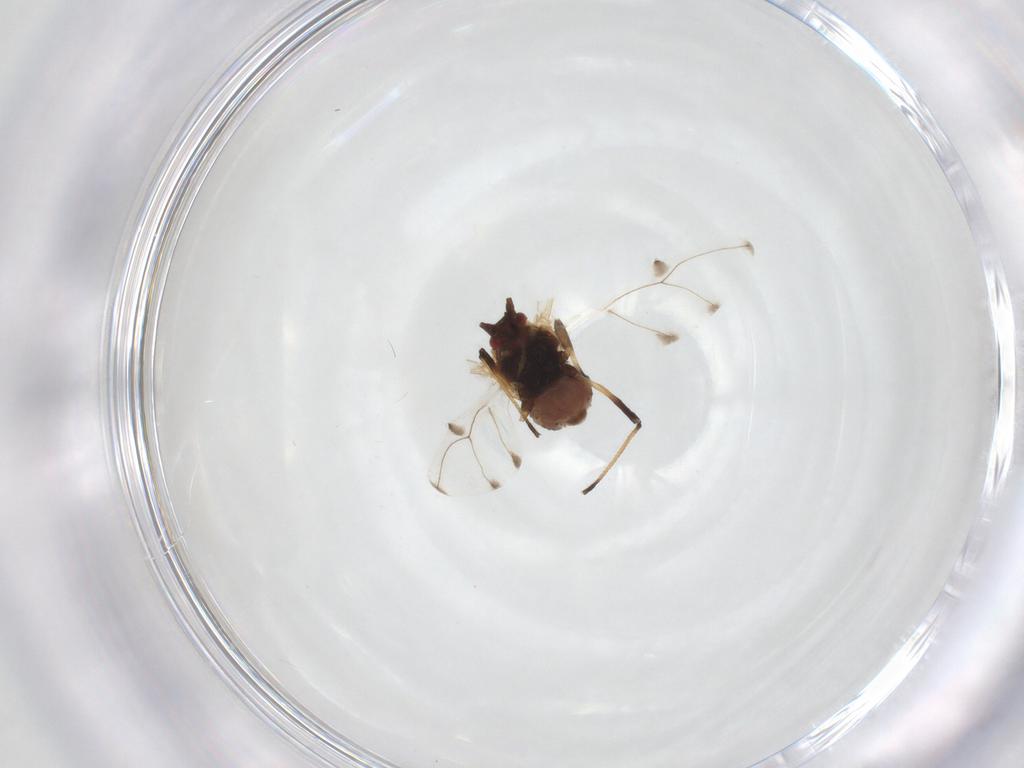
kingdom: Animalia
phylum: Arthropoda
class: Insecta
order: Hemiptera
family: Aphididae
